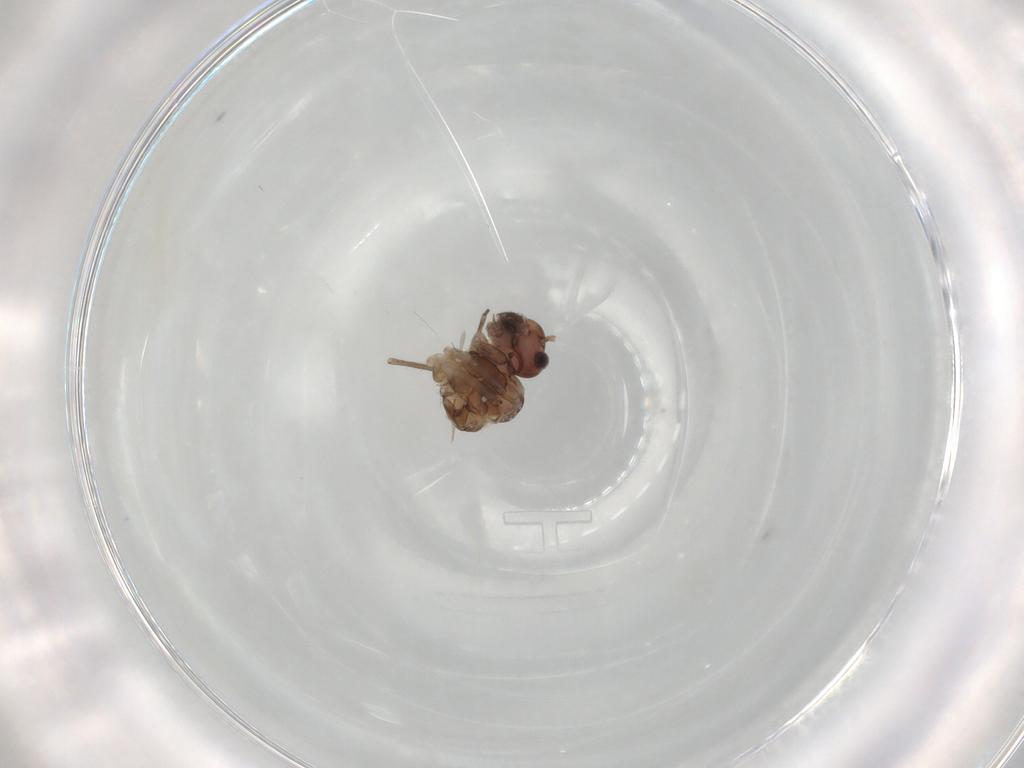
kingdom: Animalia
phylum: Arthropoda
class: Insecta
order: Psocodea
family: Peripsocidae
